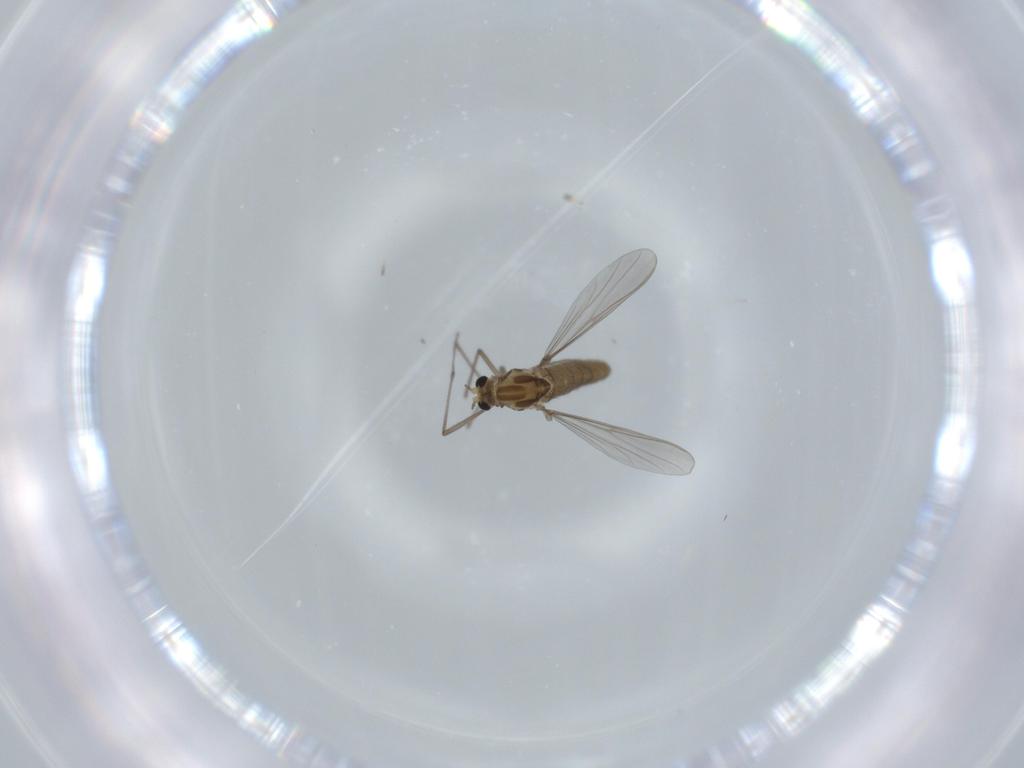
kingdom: Animalia
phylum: Arthropoda
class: Insecta
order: Diptera
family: Chironomidae
